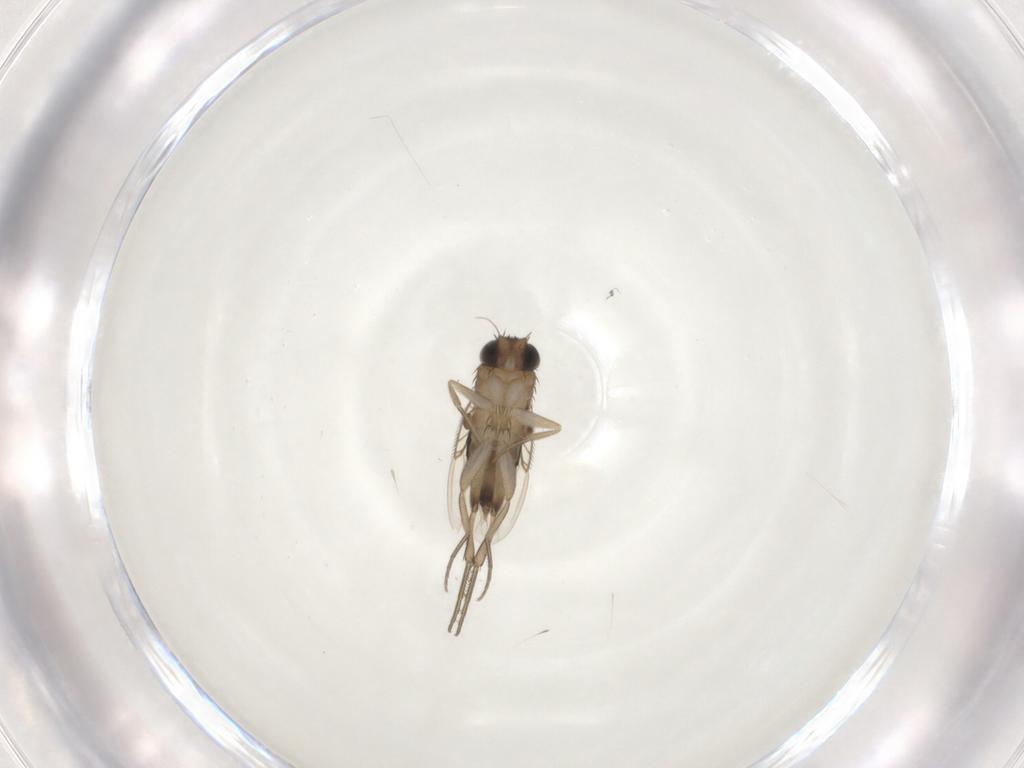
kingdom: Animalia
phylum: Arthropoda
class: Insecta
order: Diptera
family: Phoridae
